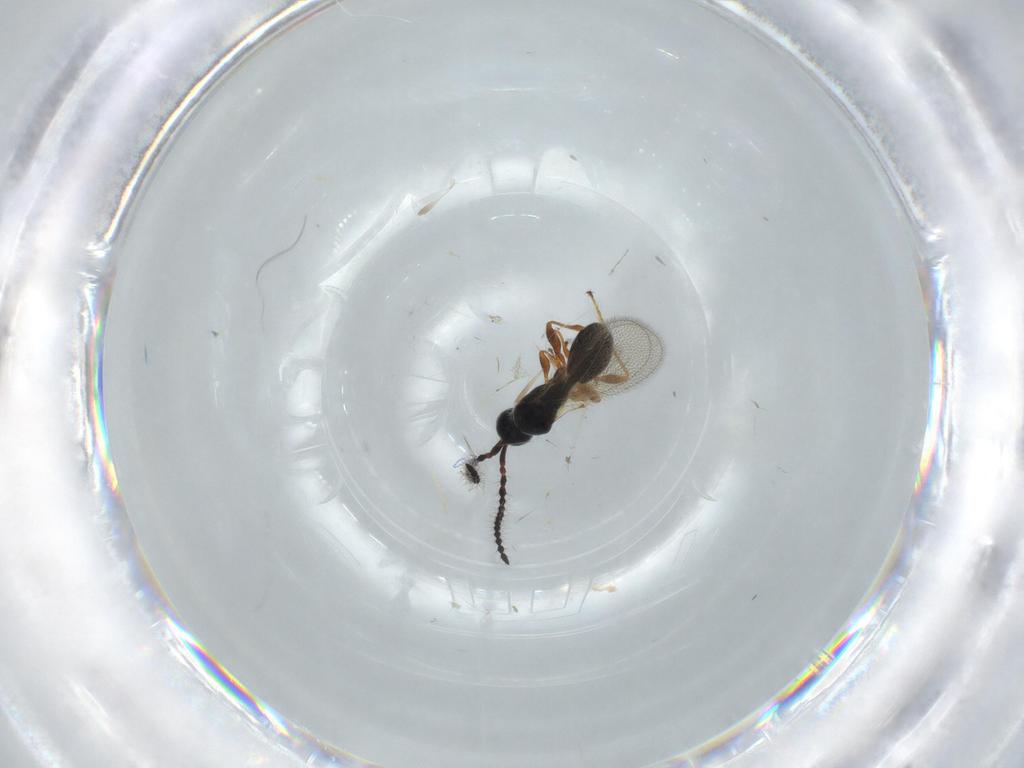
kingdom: Animalia
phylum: Arthropoda
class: Insecta
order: Hymenoptera
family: Diapriidae
